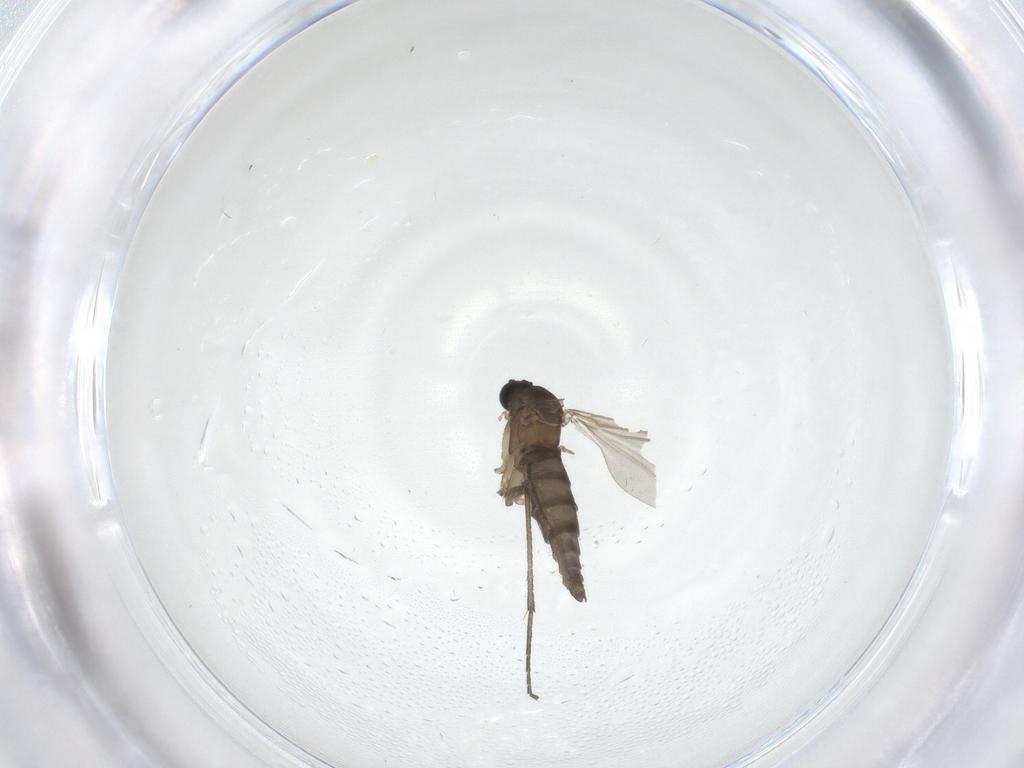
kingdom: Animalia
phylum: Arthropoda
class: Insecta
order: Diptera
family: Sciaridae
